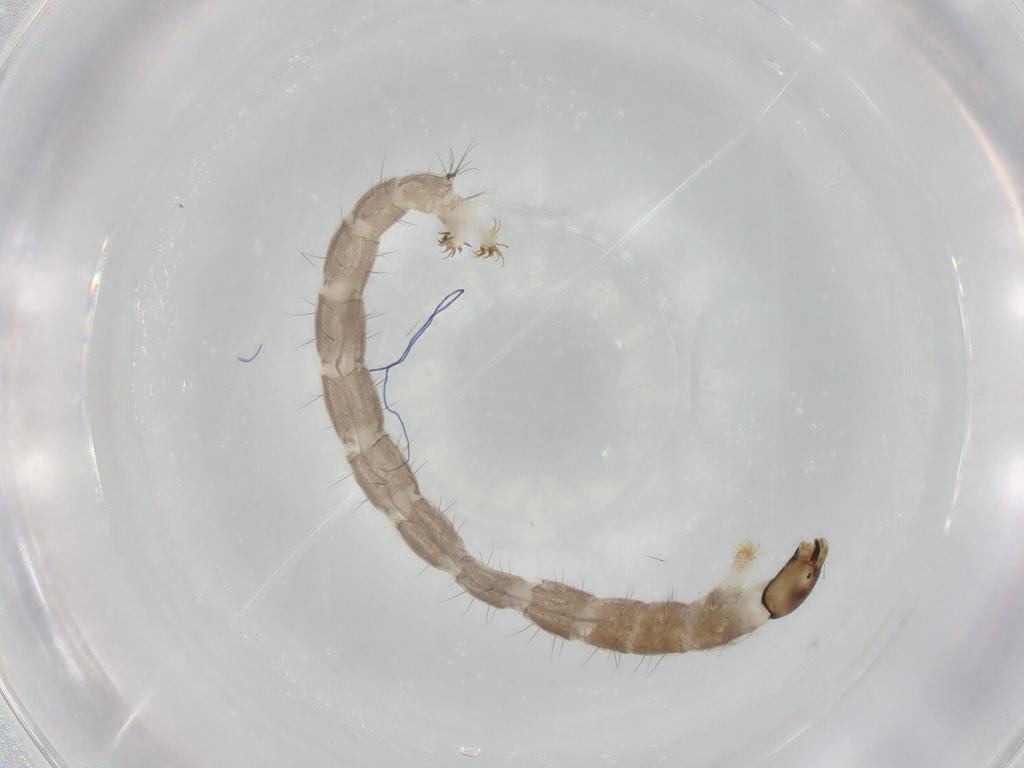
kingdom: Animalia
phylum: Arthropoda
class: Insecta
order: Diptera
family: Chironomidae
